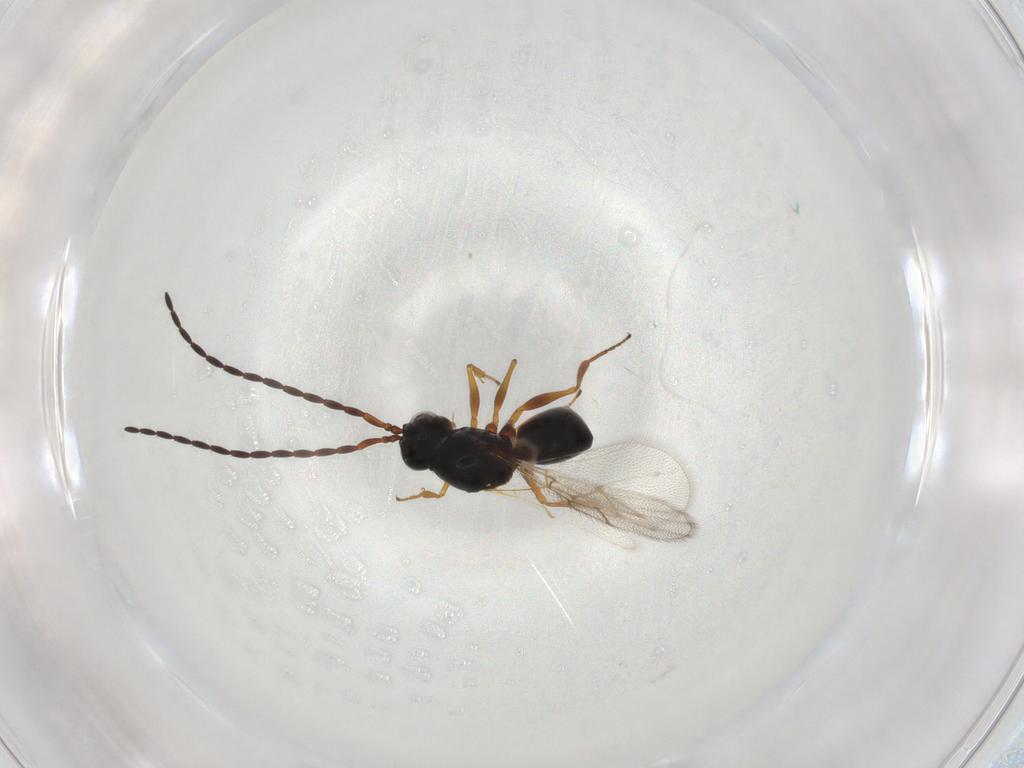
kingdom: Animalia
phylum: Arthropoda
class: Insecta
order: Hymenoptera
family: Figitidae
